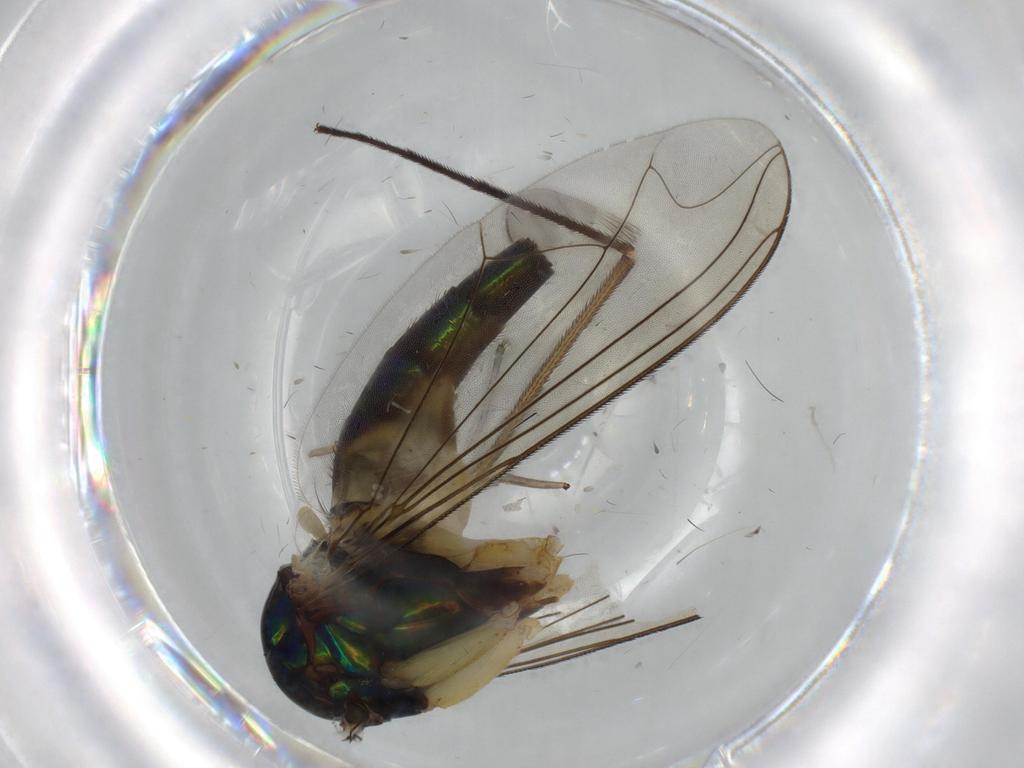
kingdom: Animalia
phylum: Arthropoda
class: Insecta
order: Diptera
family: Dolichopodidae
